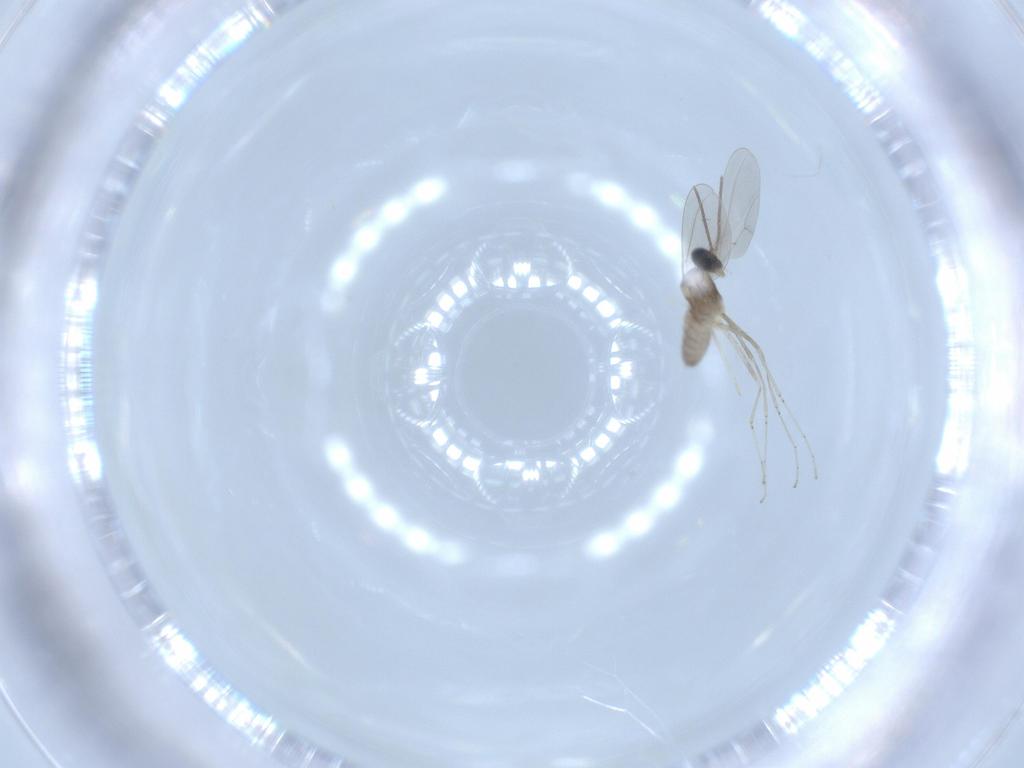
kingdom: Animalia
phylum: Arthropoda
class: Insecta
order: Diptera
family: Cecidomyiidae
